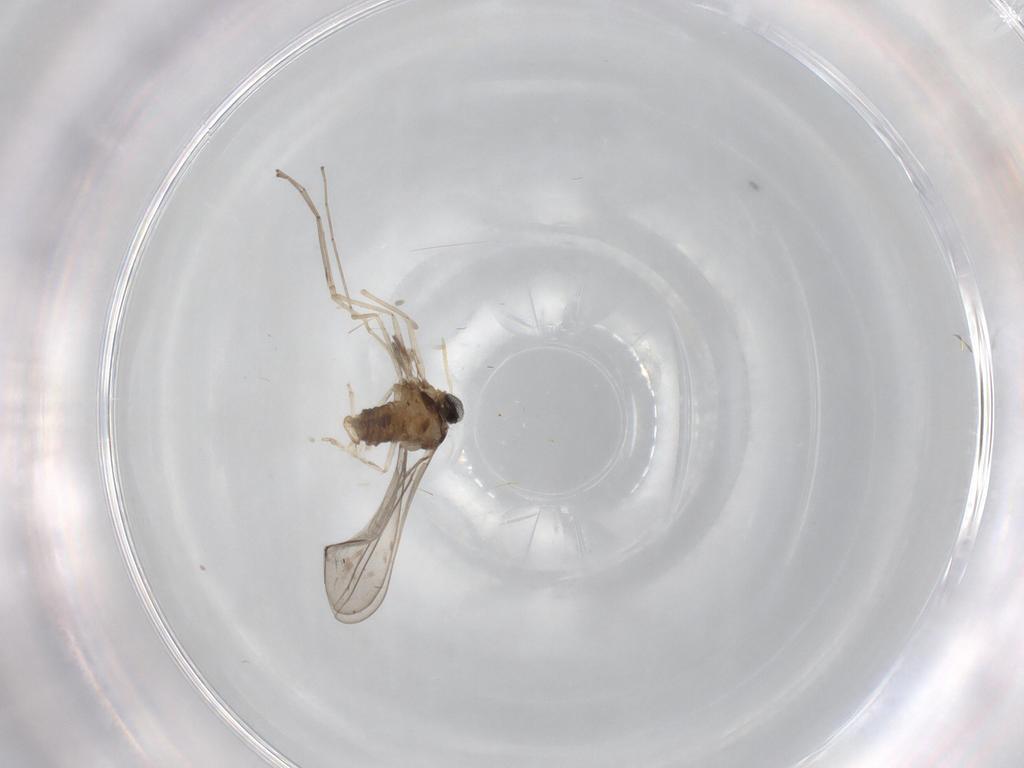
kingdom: Animalia
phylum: Arthropoda
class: Insecta
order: Diptera
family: Cecidomyiidae
